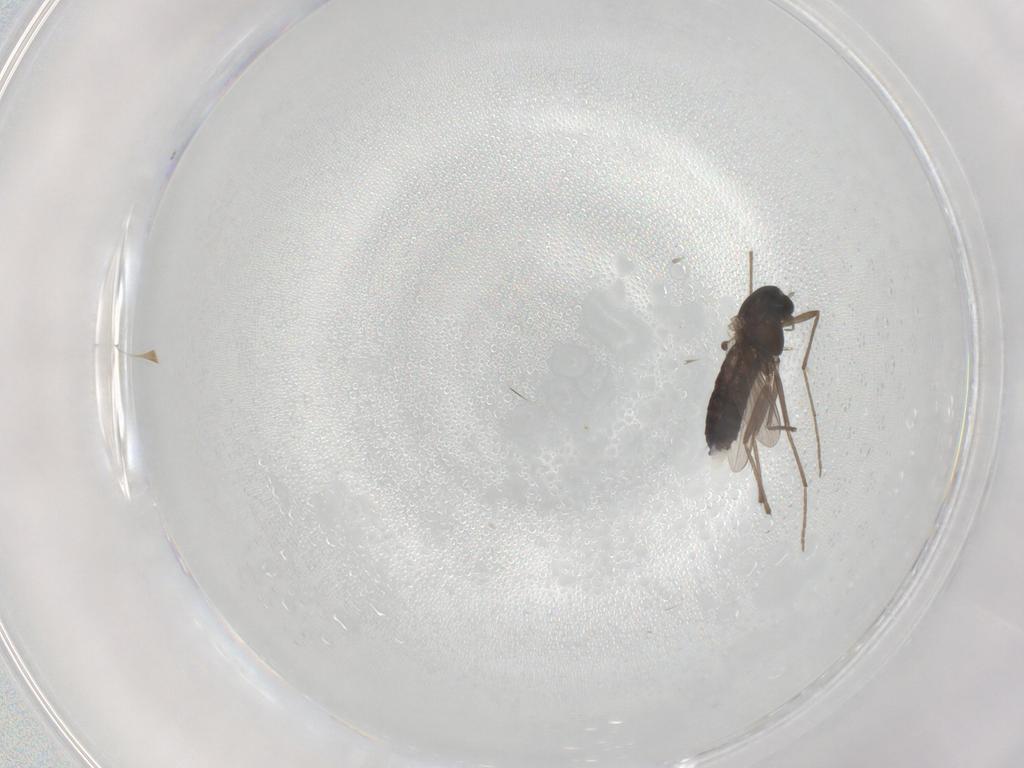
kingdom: Animalia
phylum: Arthropoda
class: Insecta
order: Diptera
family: Chironomidae
